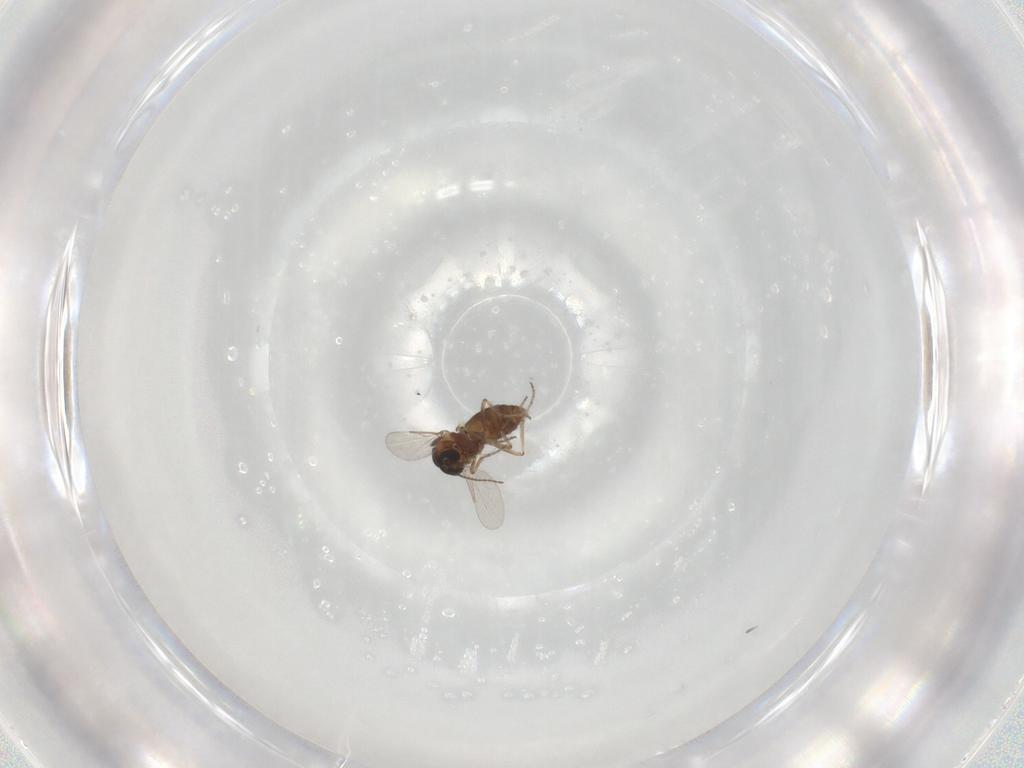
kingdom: Animalia
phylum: Arthropoda
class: Insecta
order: Diptera
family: Ceratopogonidae
